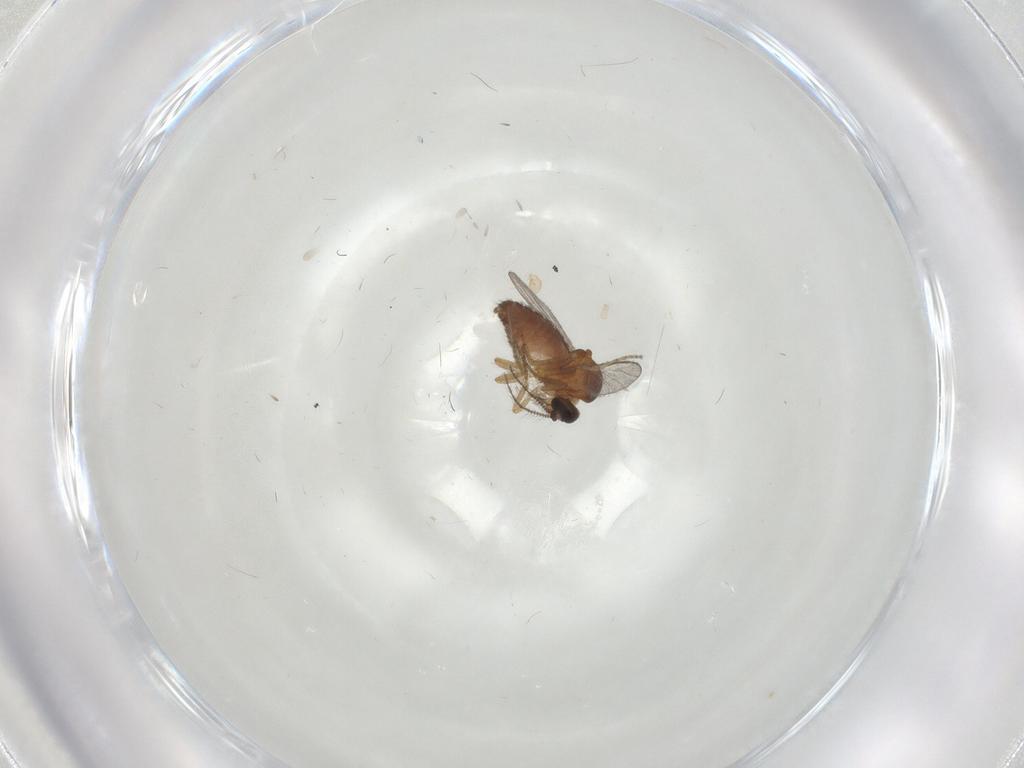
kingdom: Animalia
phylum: Arthropoda
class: Insecta
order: Diptera
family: Ceratopogonidae
